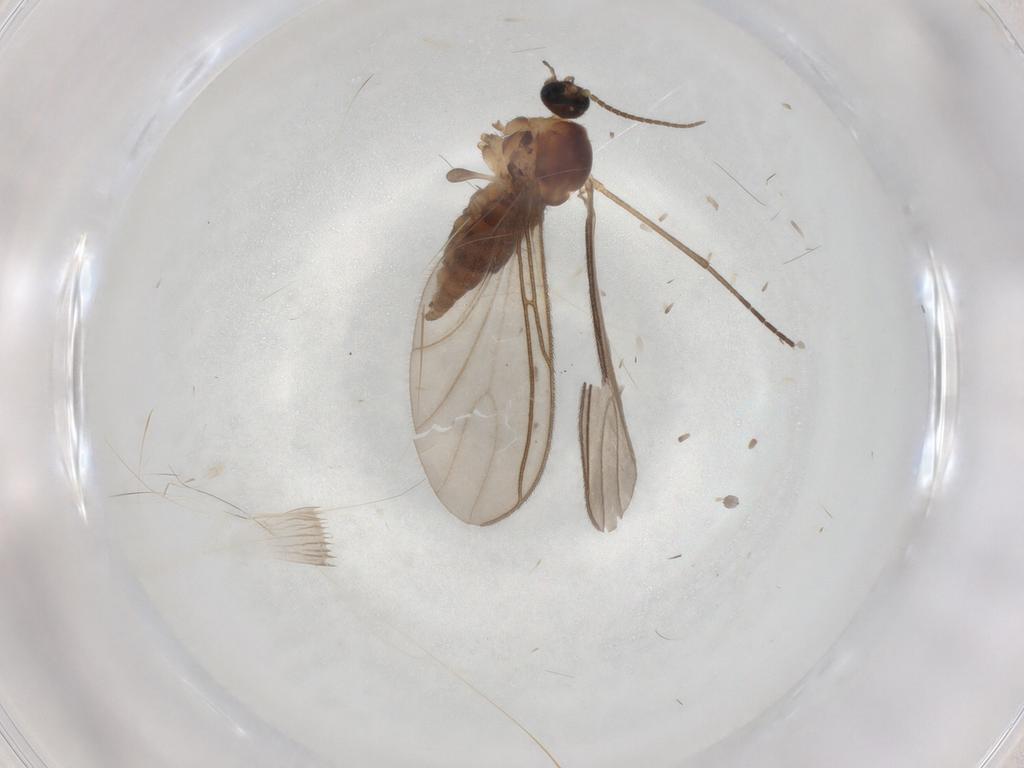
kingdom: Animalia
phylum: Arthropoda
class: Insecta
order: Diptera
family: Sciaridae
